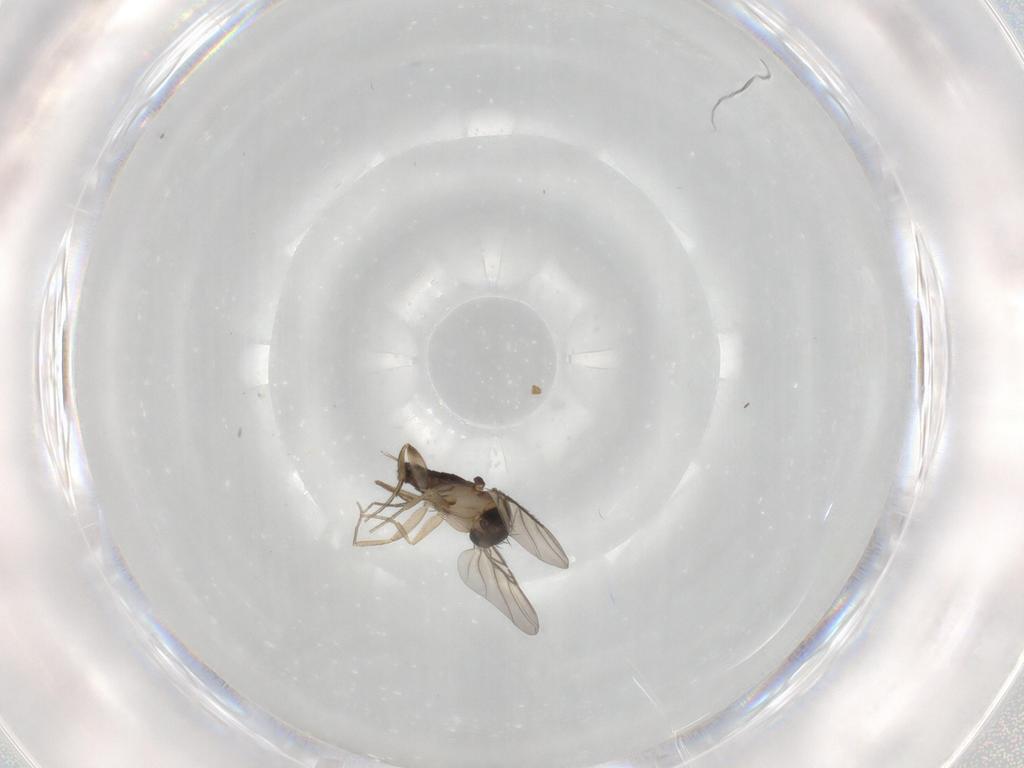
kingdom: Animalia
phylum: Arthropoda
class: Insecta
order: Diptera
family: Phoridae
